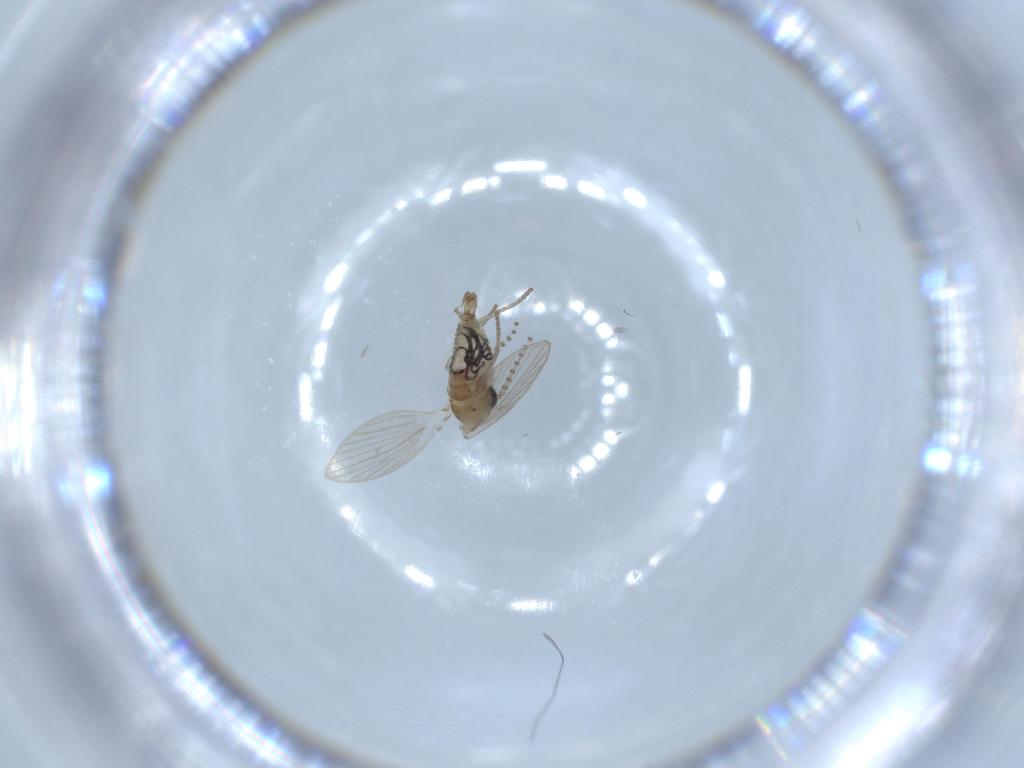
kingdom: Animalia
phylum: Arthropoda
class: Insecta
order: Diptera
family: Psychodidae
